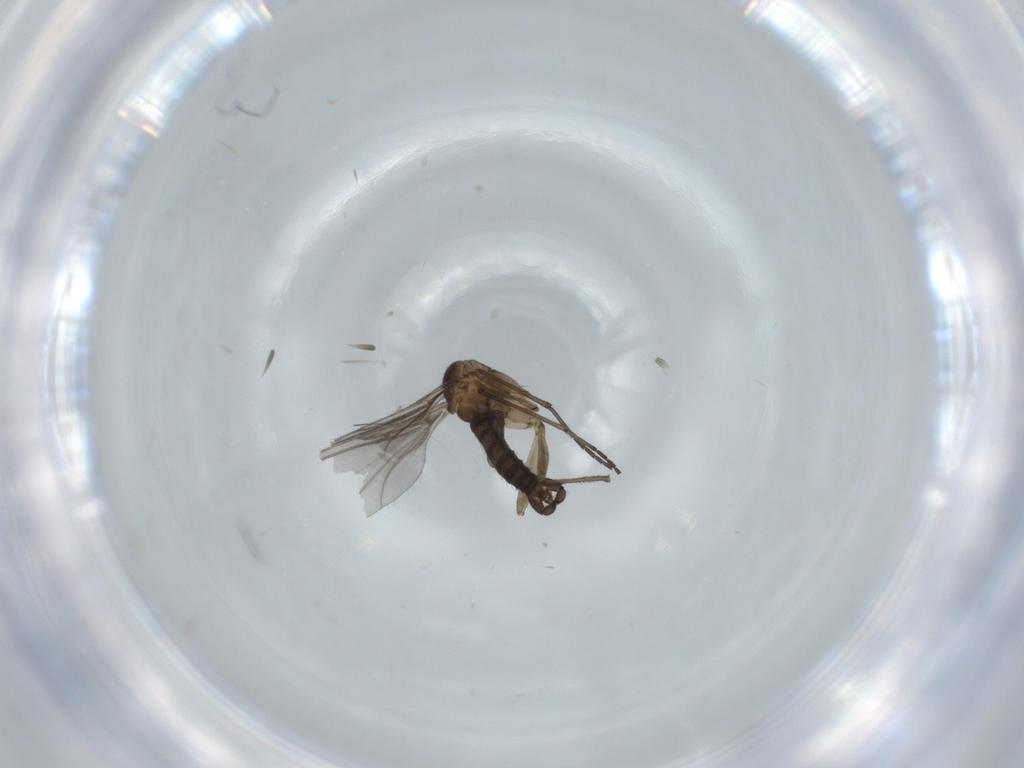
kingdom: Animalia
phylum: Arthropoda
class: Insecta
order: Diptera
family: Sciaridae
